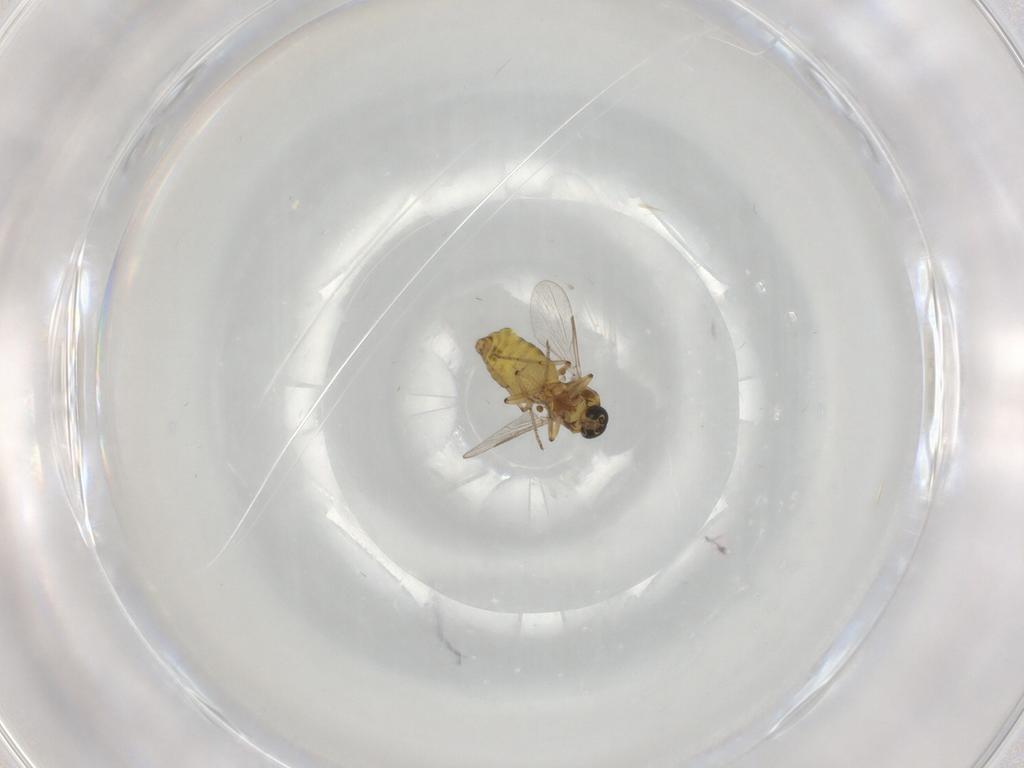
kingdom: Animalia
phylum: Arthropoda
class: Insecta
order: Diptera
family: Ceratopogonidae
